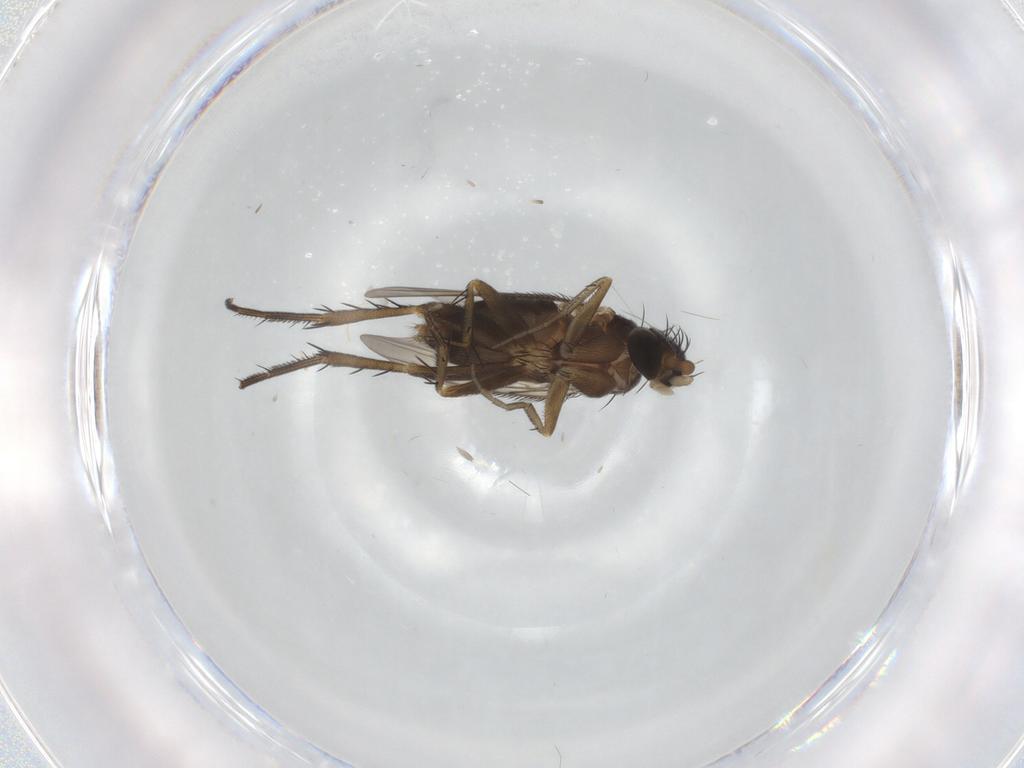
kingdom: Animalia
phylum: Arthropoda
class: Insecta
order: Diptera
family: Phoridae
